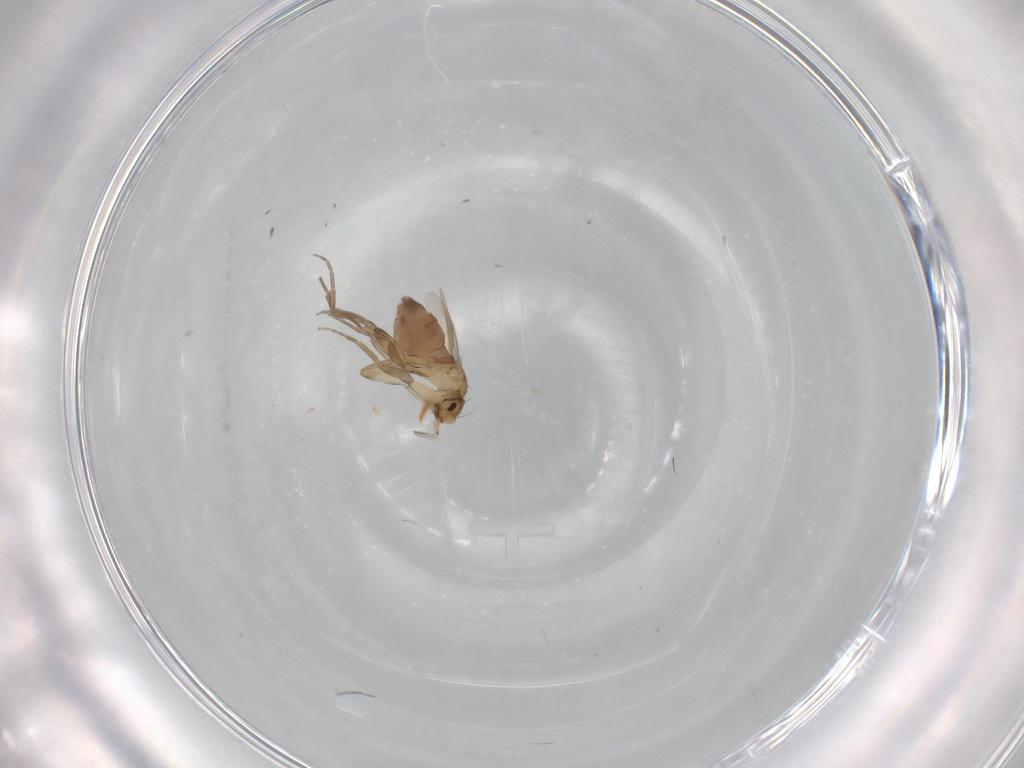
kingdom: Animalia
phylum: Arthropoda
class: Insecta
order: Diptera
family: Phoridae
